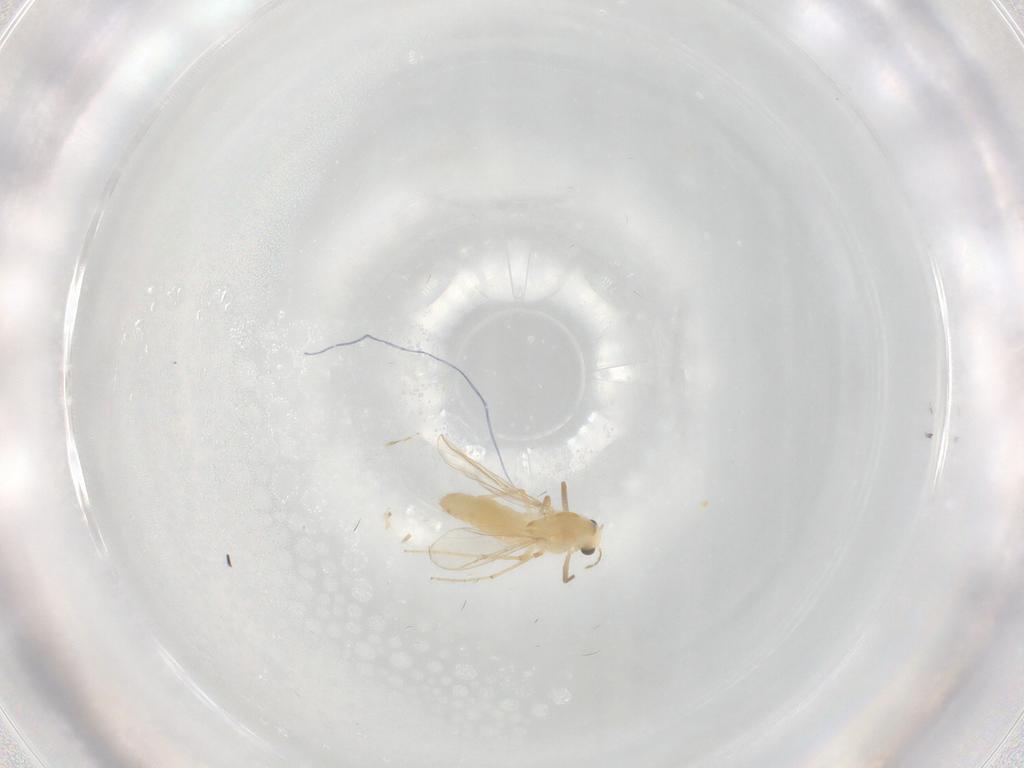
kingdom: Animalia
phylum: Arthropoda
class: Insecta
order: Diptera
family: Chironomidae
